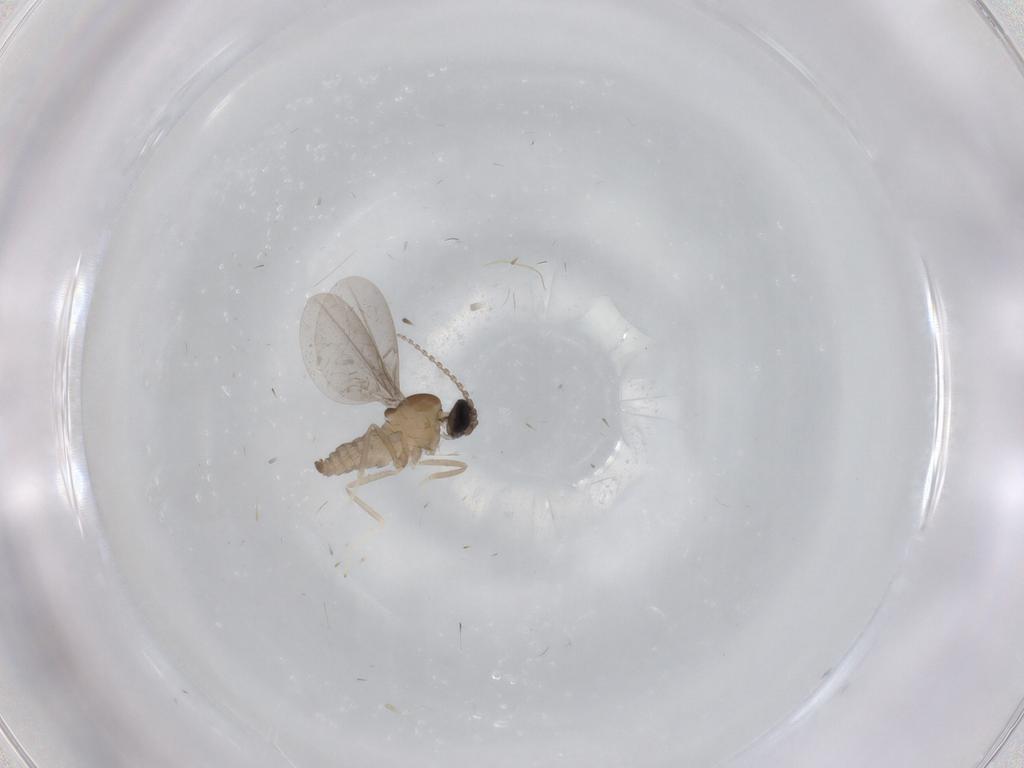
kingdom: Animalia
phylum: Arthropoda
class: Insecta
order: Diptera
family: Cecidomyiidae
